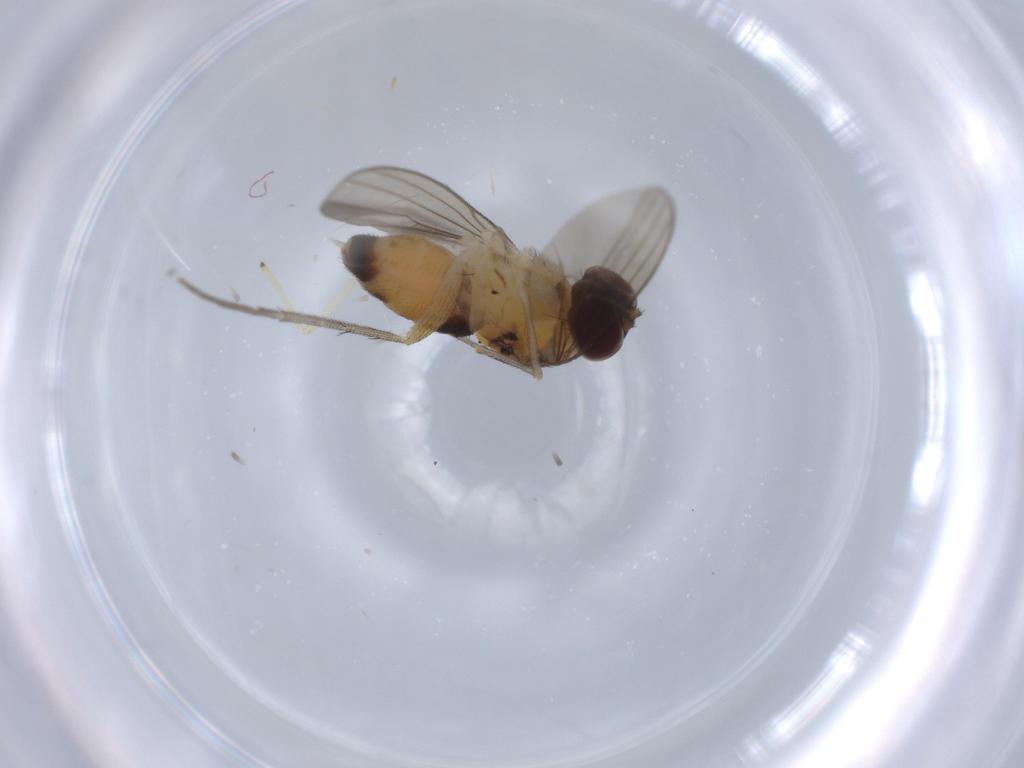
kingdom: Animalia
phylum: Arthropoda
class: Insecta
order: Diptera
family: Dolichopodidae
